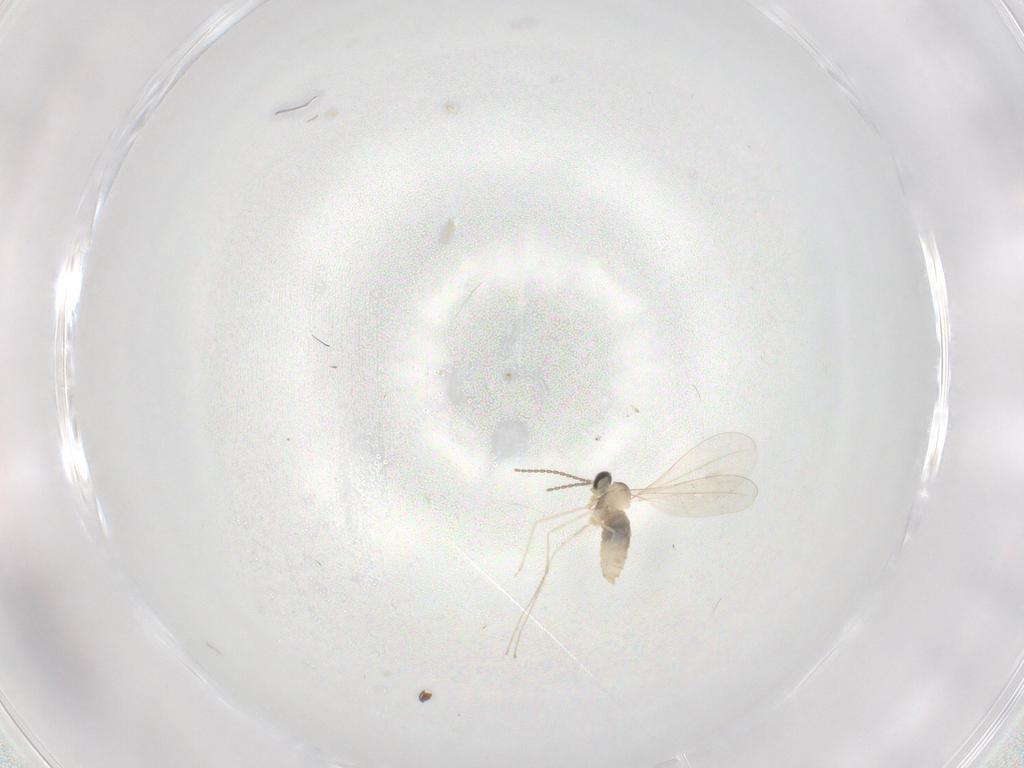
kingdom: Animalia
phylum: Arthropoda
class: Insecta
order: Diptera
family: Cecidomyiidae
